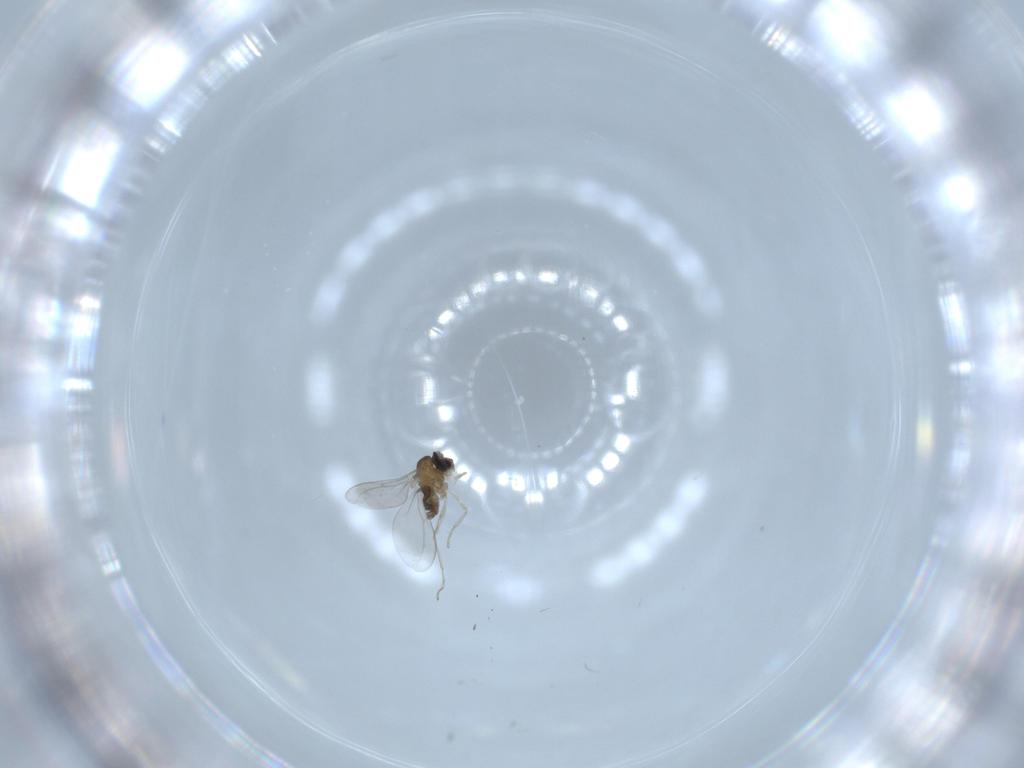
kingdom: Animalia
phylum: Arthropoda
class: Insecta
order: Diptera
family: Cecidomyiidae
